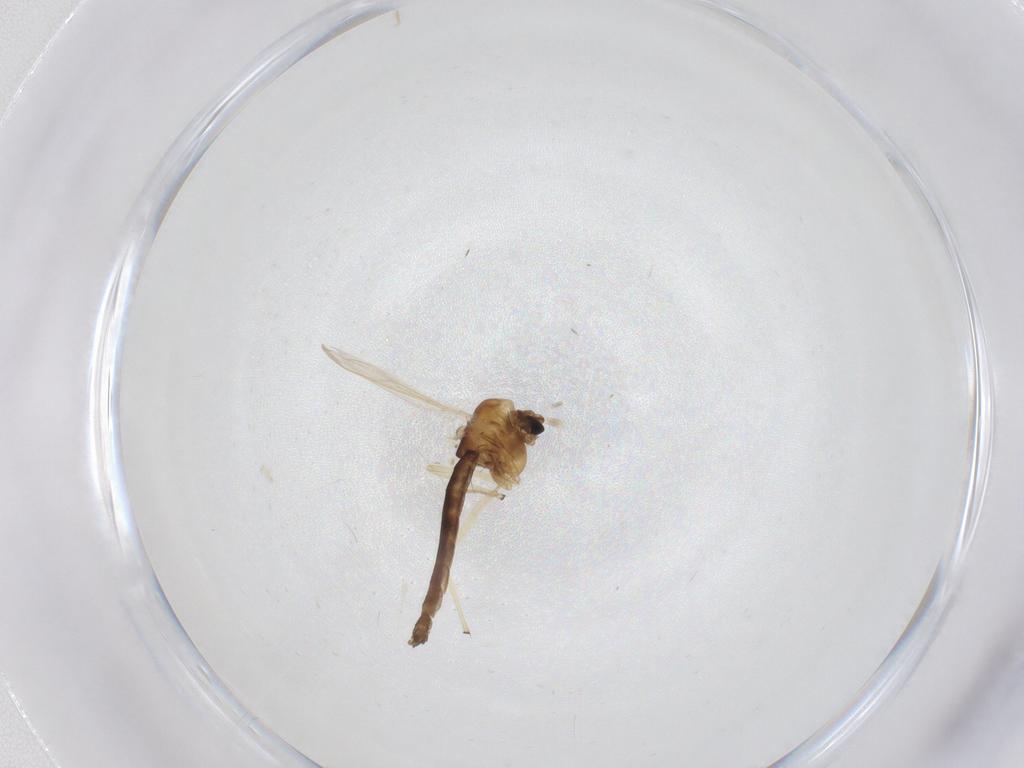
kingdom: Animalia
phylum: Arthropoda
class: Insecta
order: Diptera
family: Chironomidae
